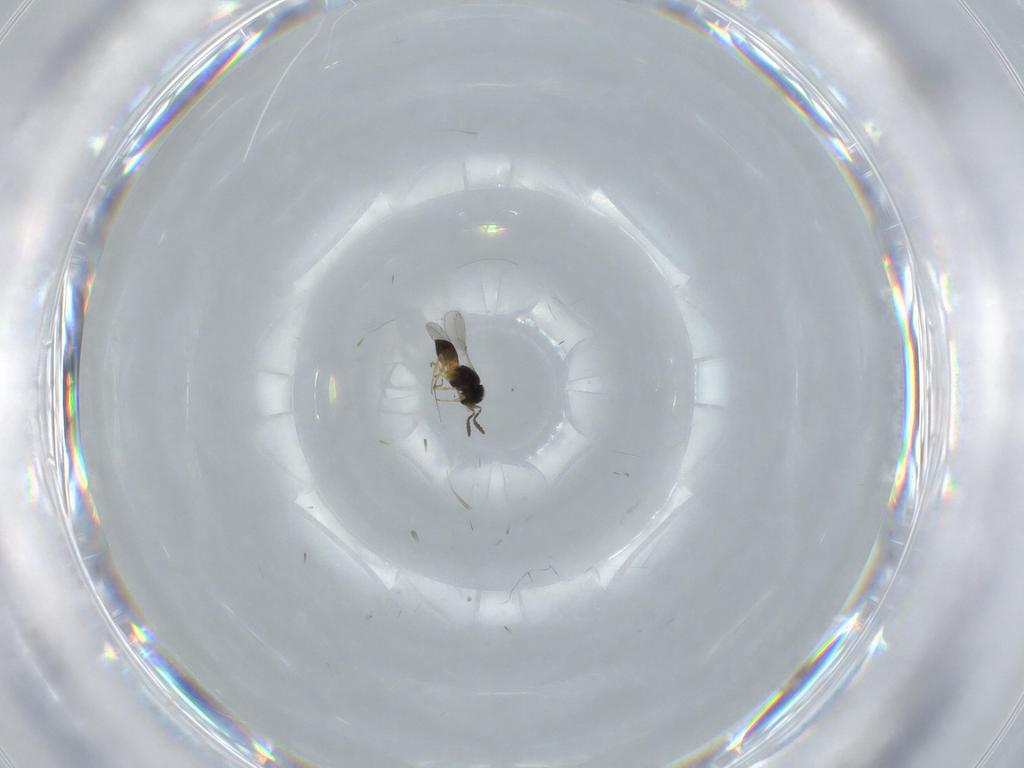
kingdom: Animalia
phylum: Arthropoda
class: Insecta
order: Hymenoptera
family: Scelionidae
